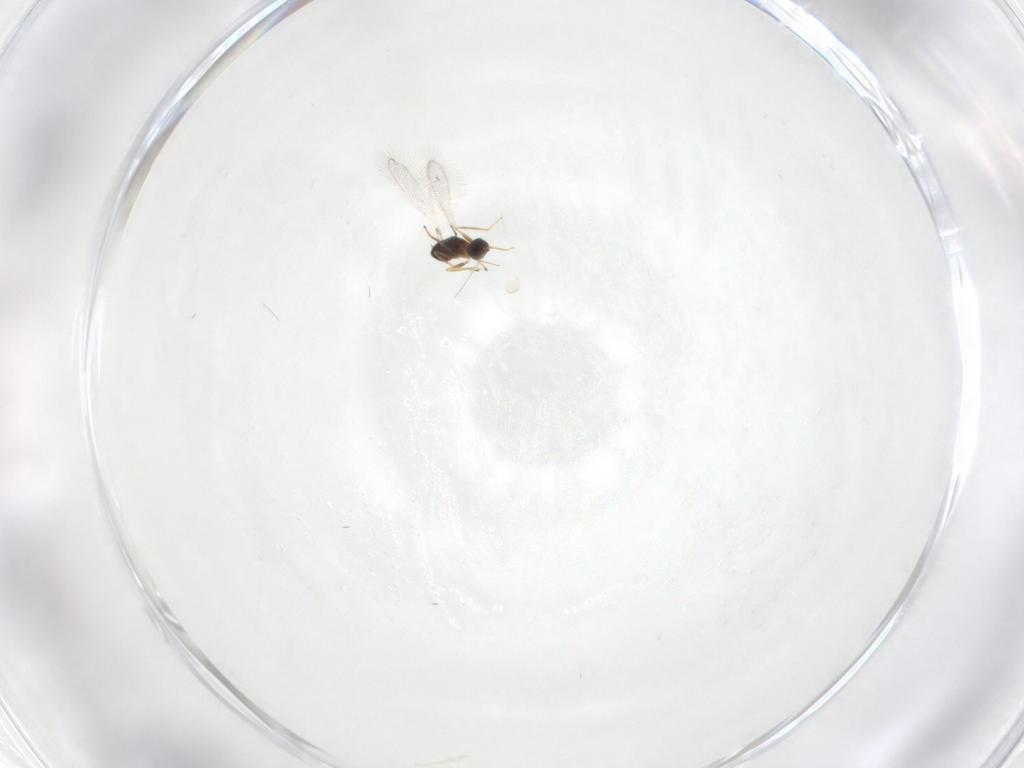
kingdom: Animalia
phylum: Arthropoda
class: Insecta
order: Hymenoptera
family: Mymaridae
